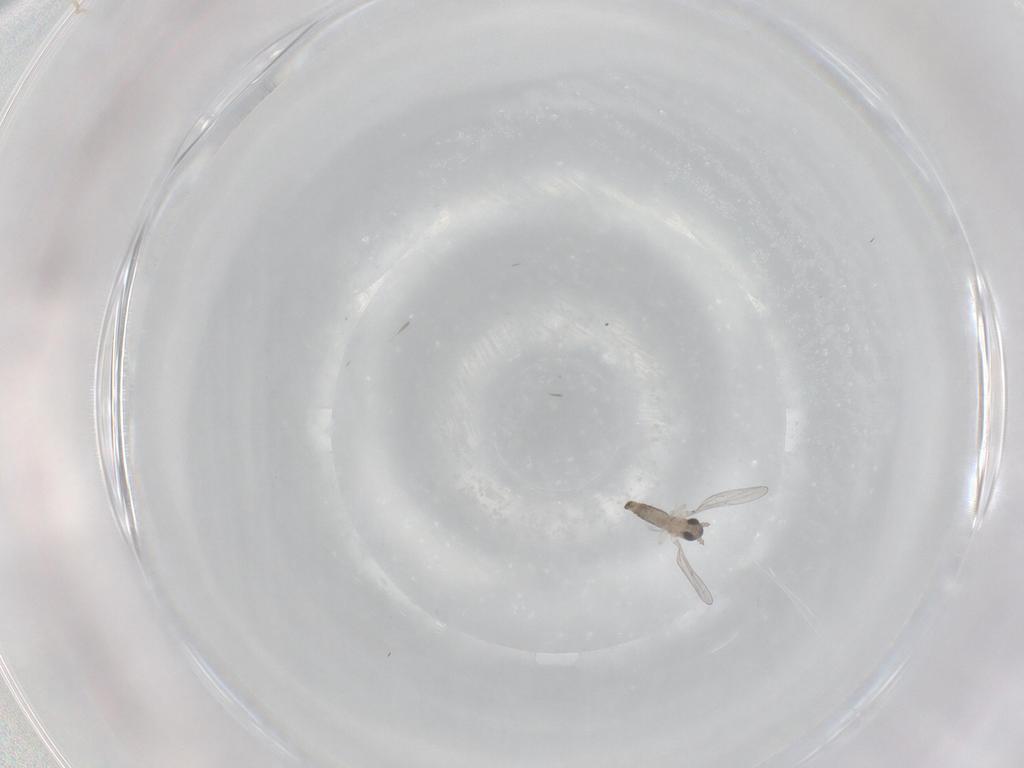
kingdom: Animalia
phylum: Arthropoda
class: Insecta
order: Diptera
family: Cecidomyiidae
